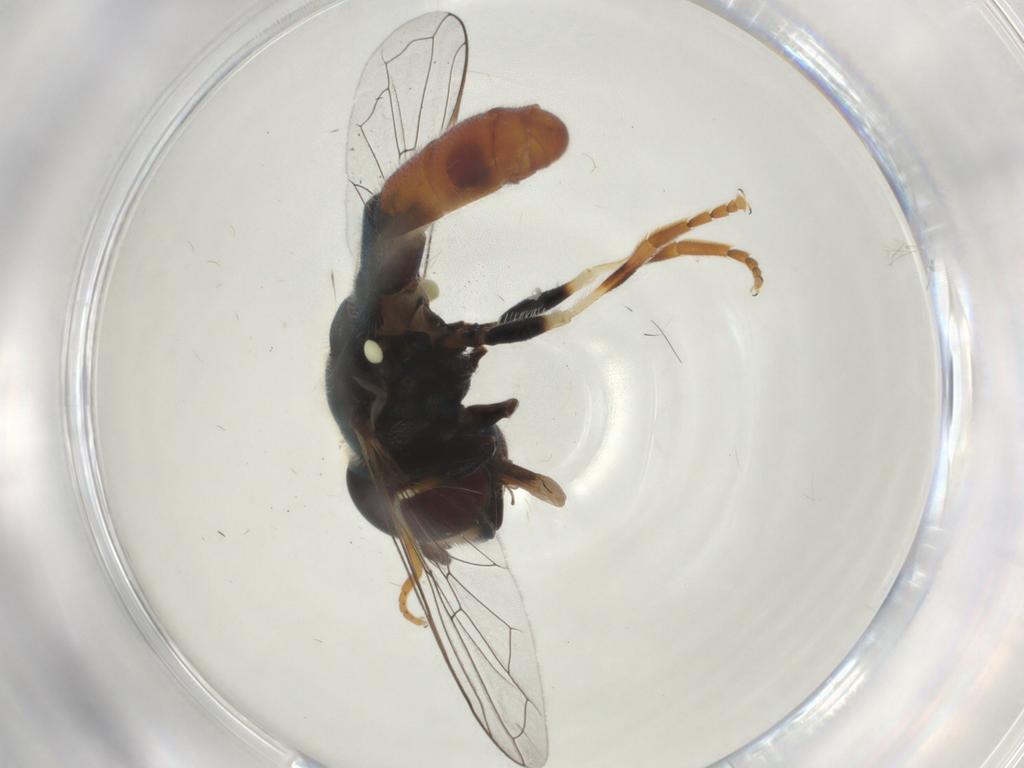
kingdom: Animalia
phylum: Arthropoda
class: Insecta
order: Diptera
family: Syrphidae
